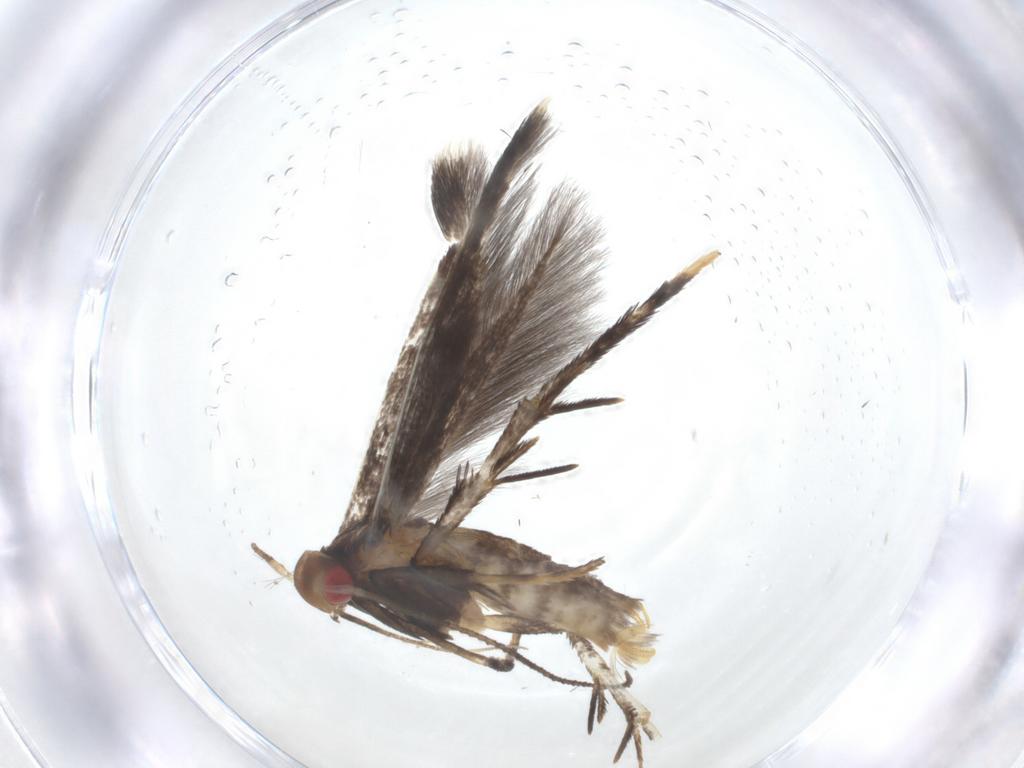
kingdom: Animalia
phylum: Arthropoda
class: Insecta
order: Lepidoptera
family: Gelechiidae
